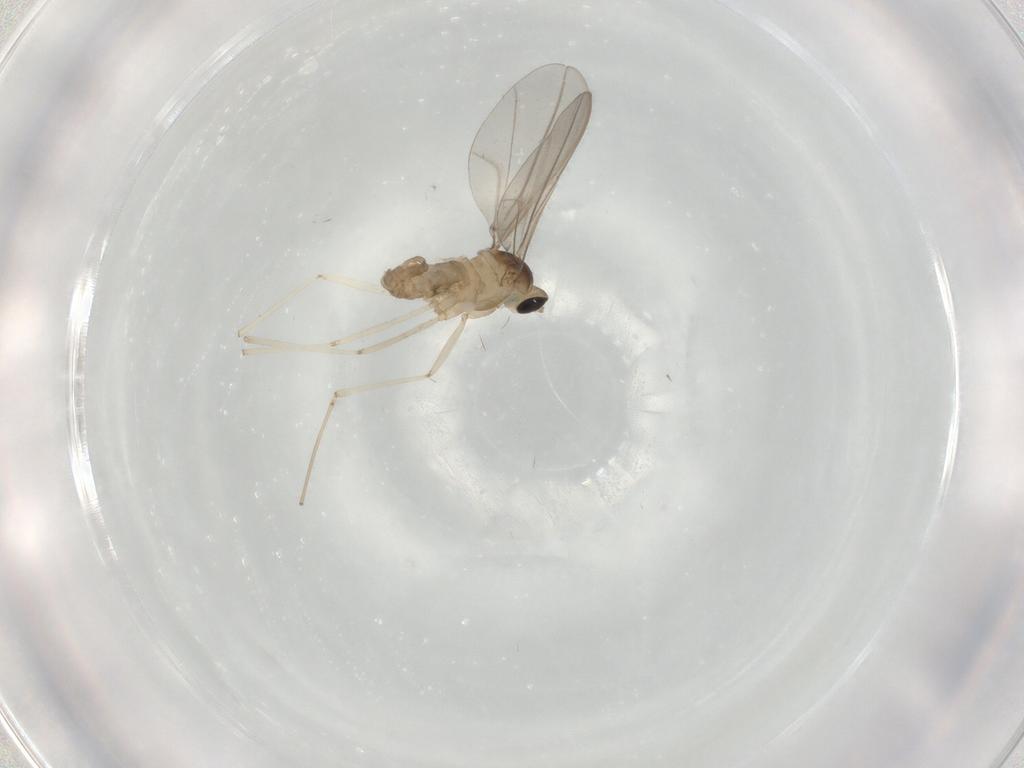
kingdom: Animalia
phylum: Arthropoda
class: Insecta
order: Diptera
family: Cecidomyiidae
